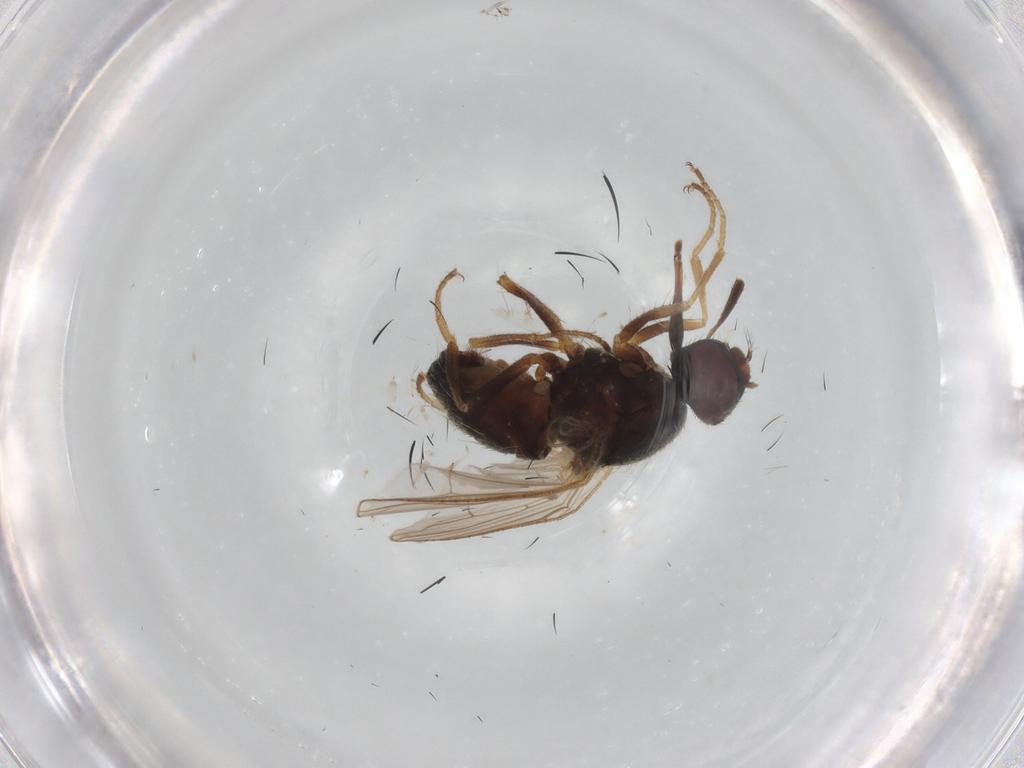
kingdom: Animalia
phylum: Arthropoda
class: Insecta
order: Diptera
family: Muscidae
